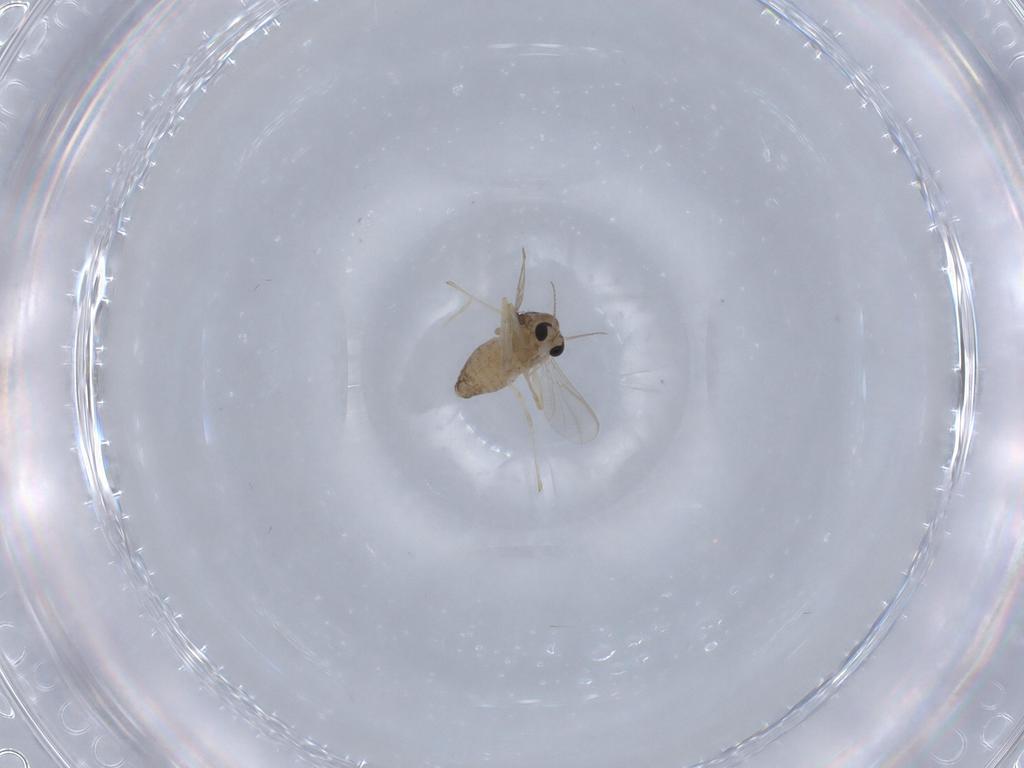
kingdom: Animalia
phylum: Arthropoda
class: Insecta
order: Diptera
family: Chironomidae
